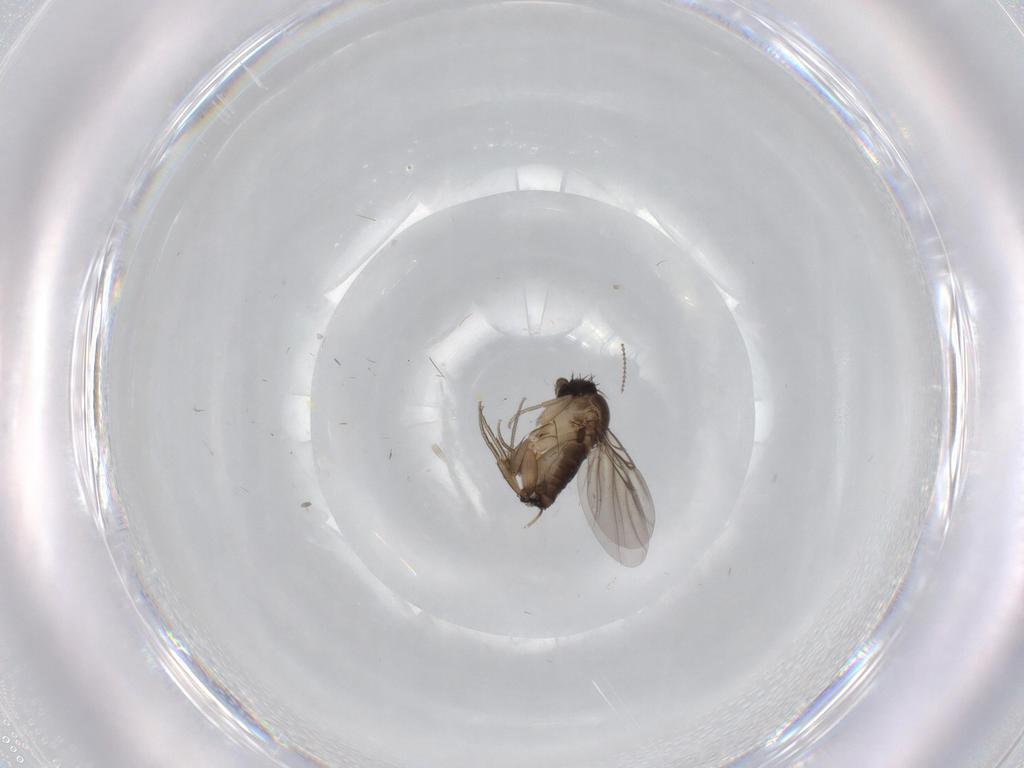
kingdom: Animalia
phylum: Arthropoda
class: Insecta
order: Diptera
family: Phoridae
